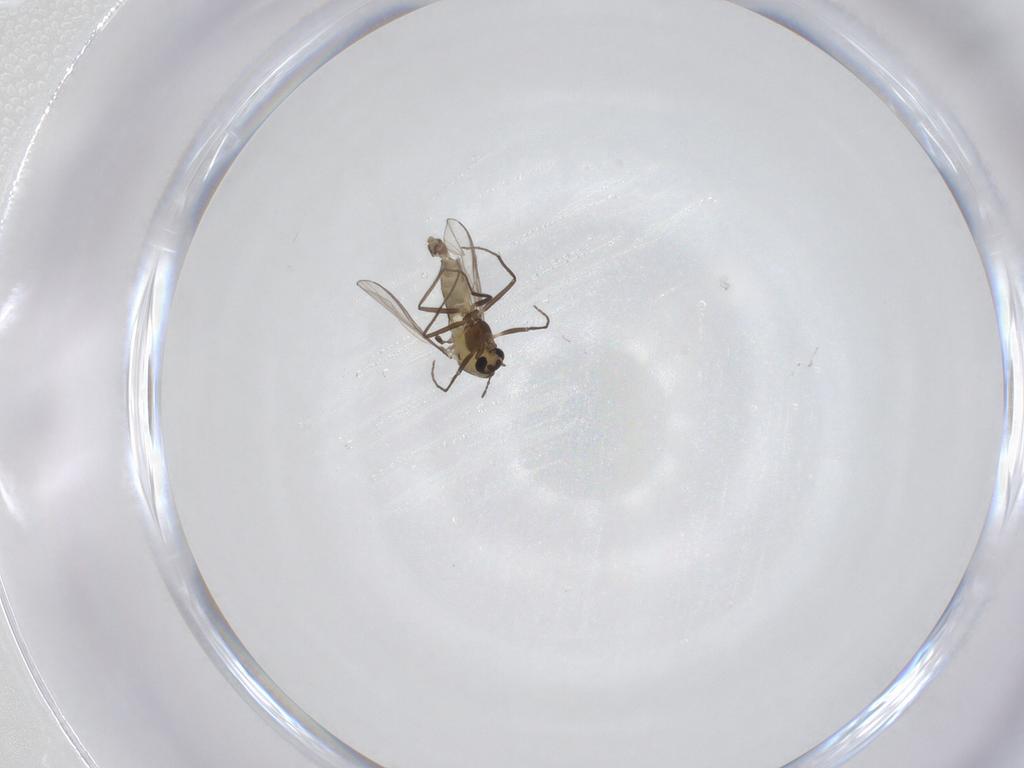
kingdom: Animalia
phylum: Arthropoda
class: Insecta
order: Diptera
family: Chironomidae
